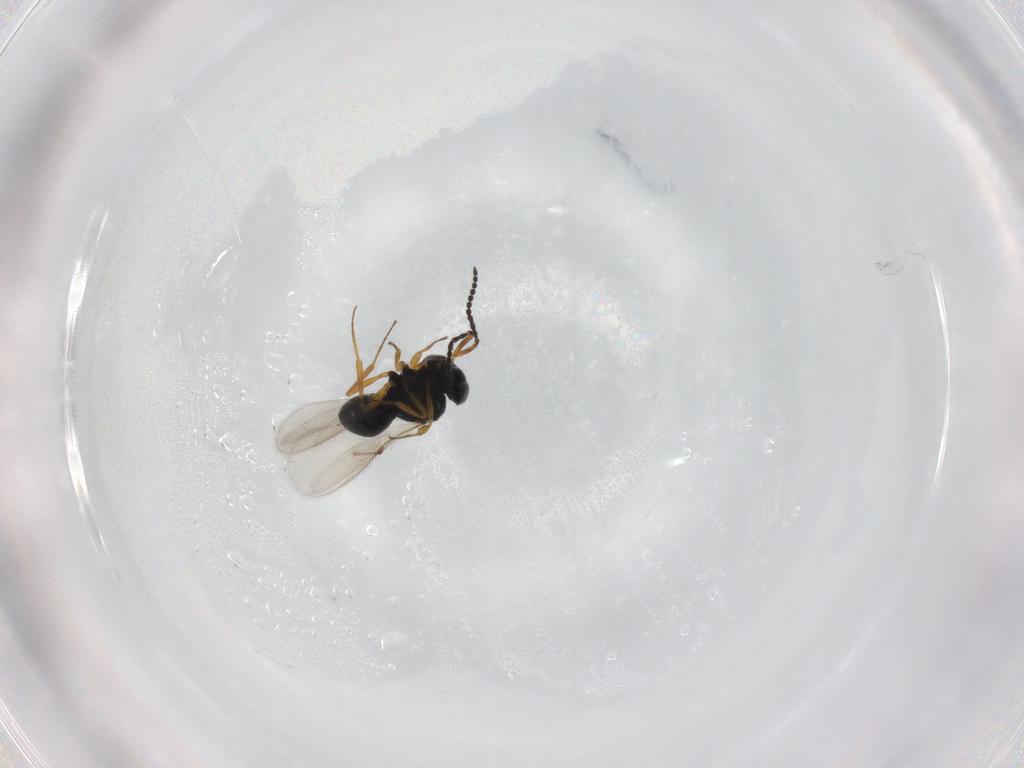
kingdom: Animalia
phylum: Arthropoda
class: Insecta
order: Hymenoptera
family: Scelionidae
